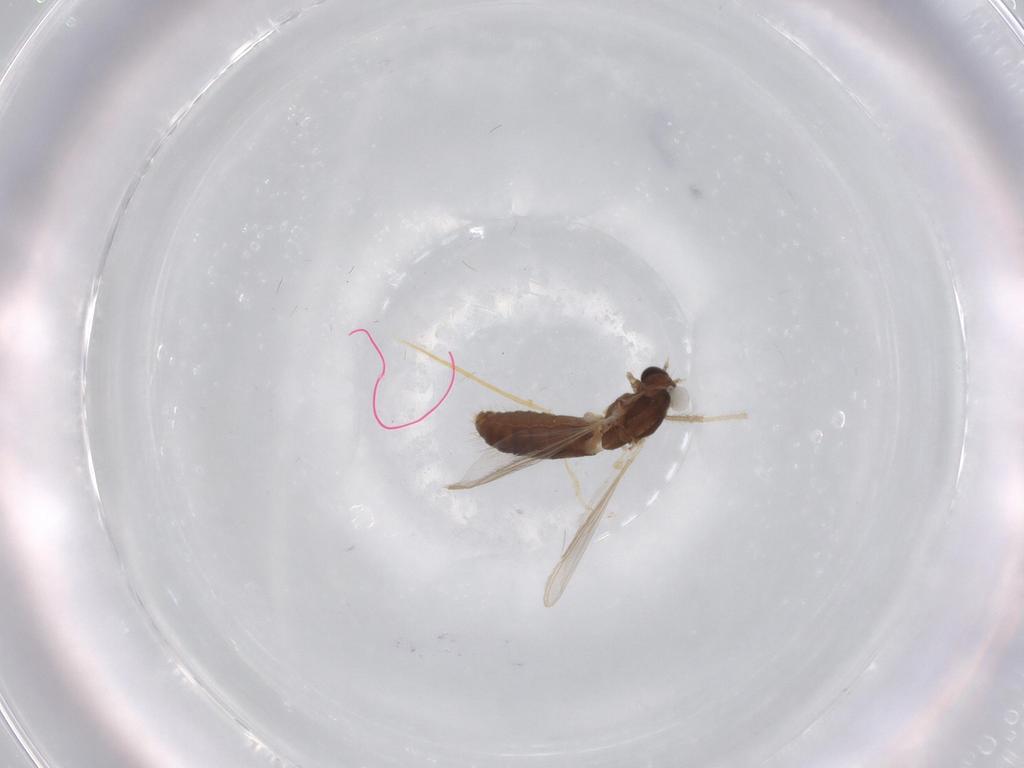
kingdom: Animalia
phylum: Arthropoda
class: Insecta
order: Diptera
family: Chironomidae
